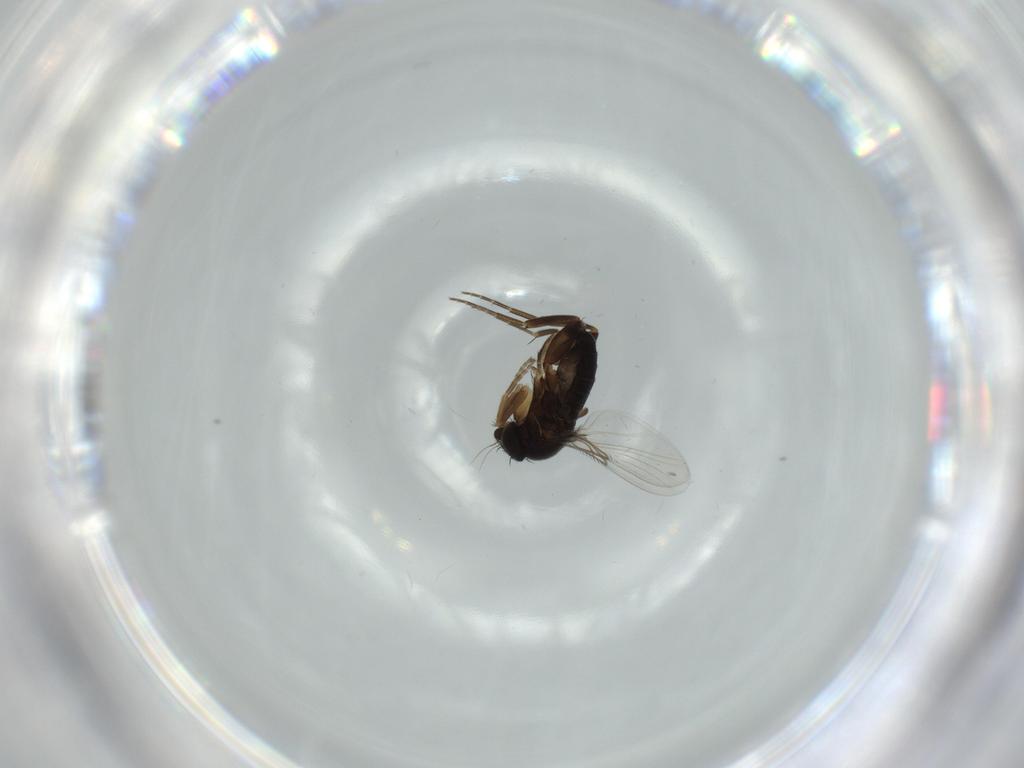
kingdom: Animalia
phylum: Arthropoda
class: Insecta
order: Diptera
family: Phoridae
